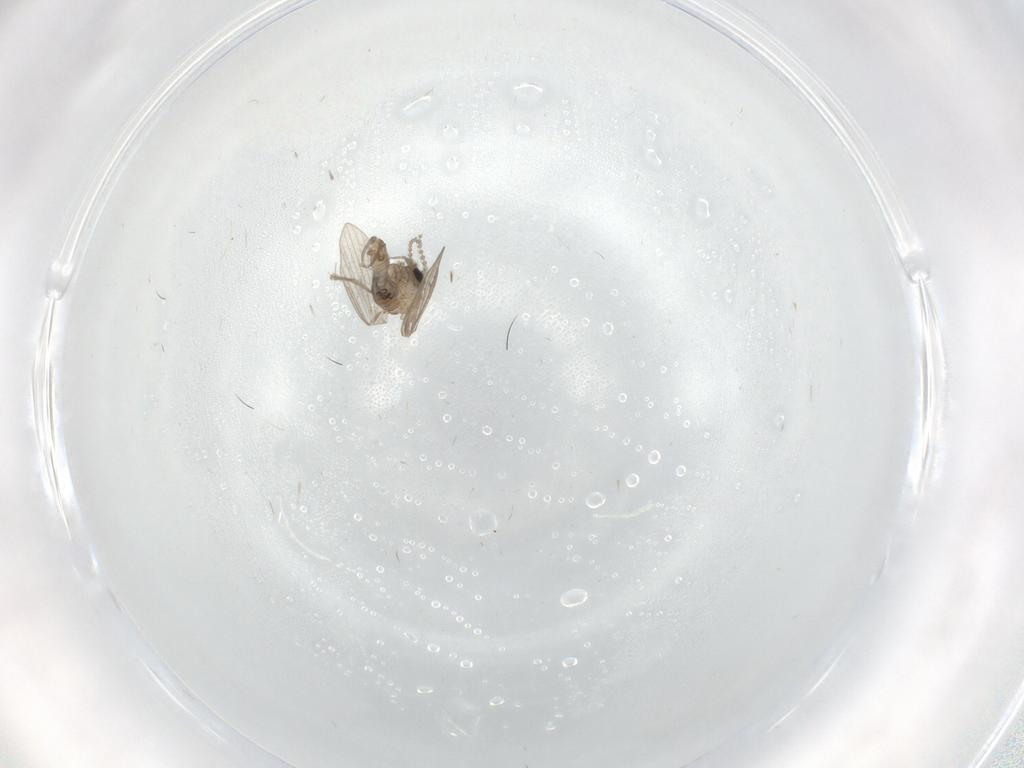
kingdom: Animalia
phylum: Arthropoda
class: Insecta
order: Diptera
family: Psychodidae
